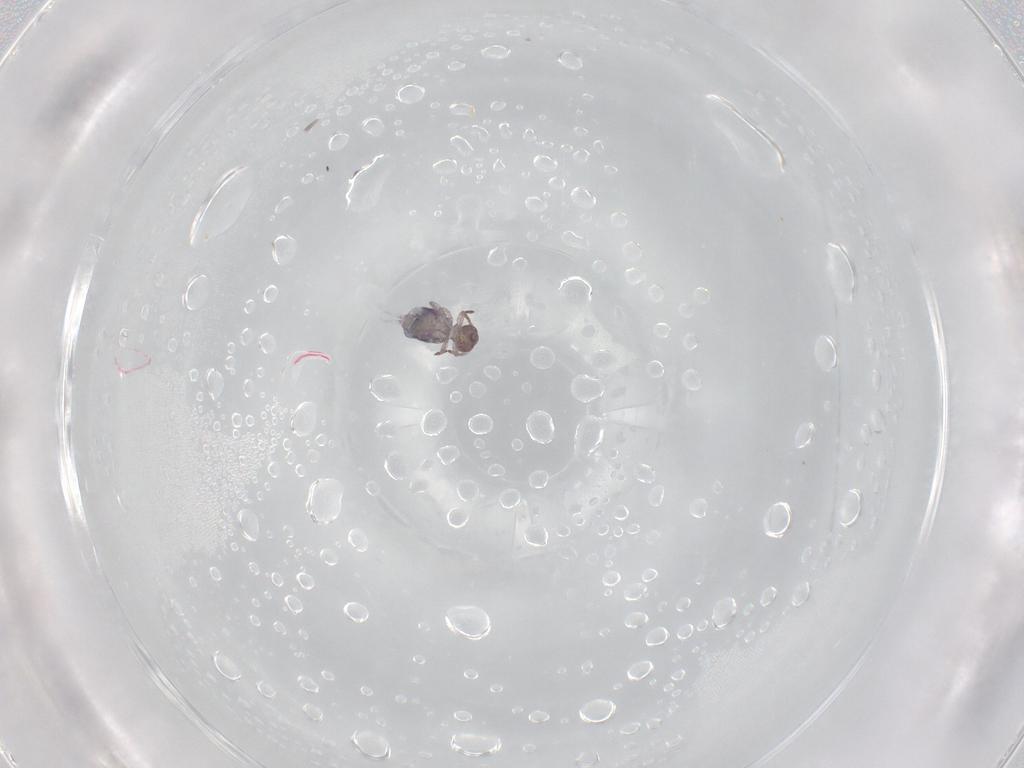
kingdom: Animalia
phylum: Arthropoda
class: Collembola
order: Symphypleona
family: Bourletiellidae
